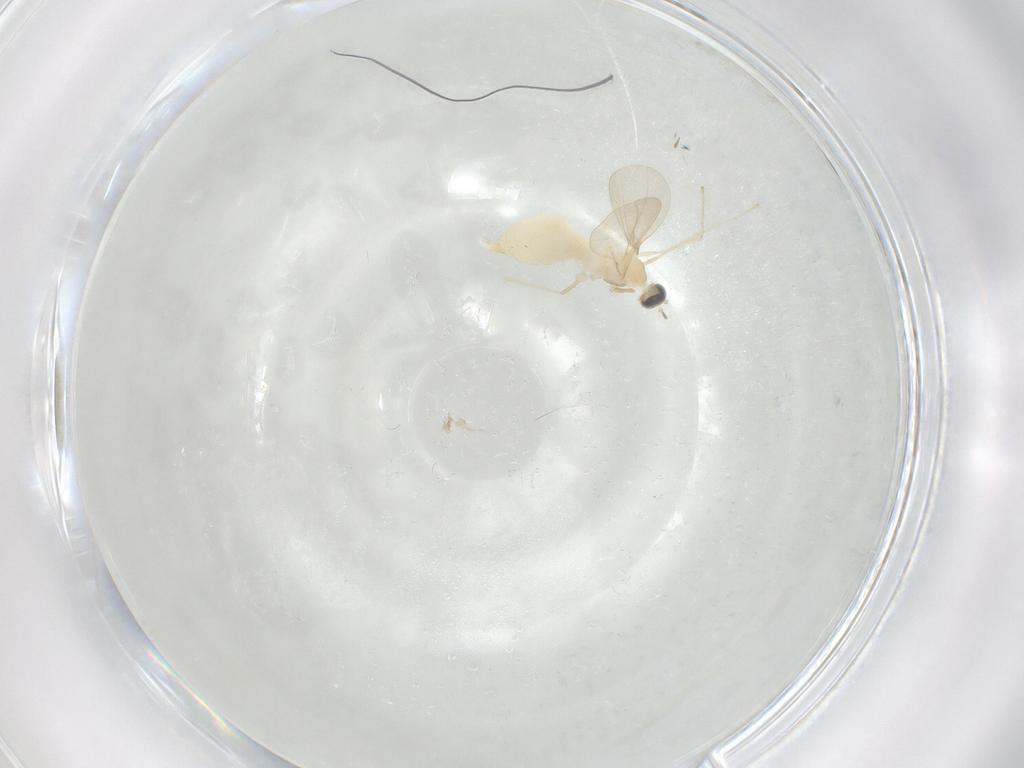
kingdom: Animalia
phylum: Arthropoda
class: Insecta
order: Diptera
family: Cecidomyiidae
